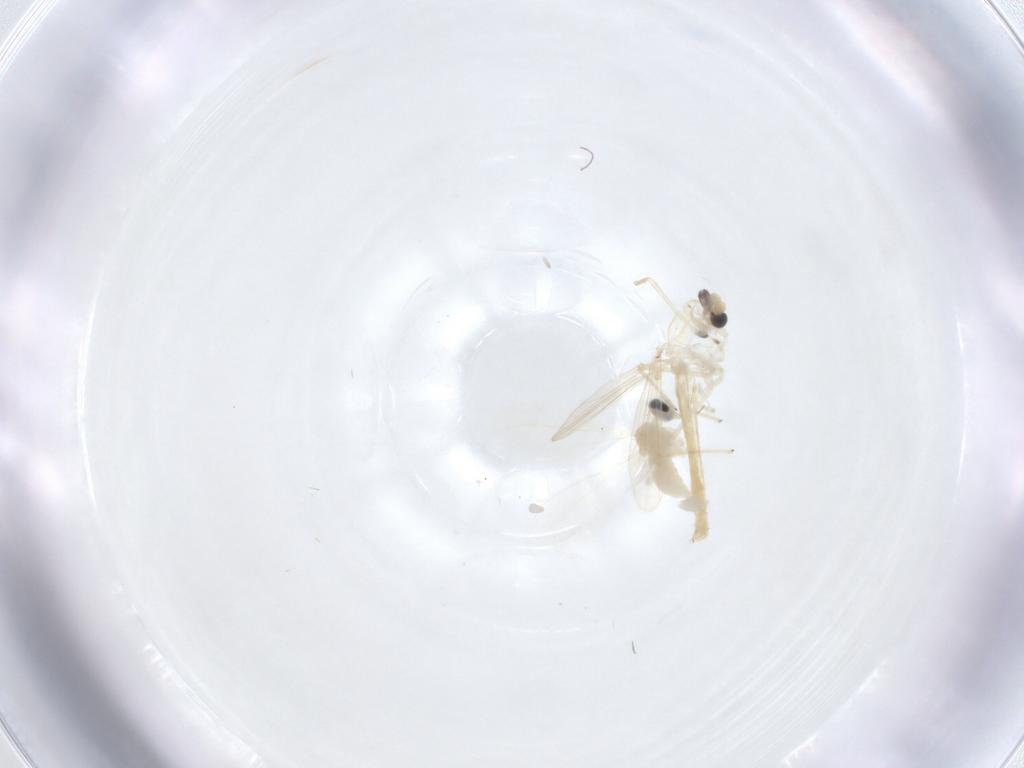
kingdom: Animalia
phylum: Arthropoda
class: Insecta
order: Diptera
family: Cecidomyiidae
